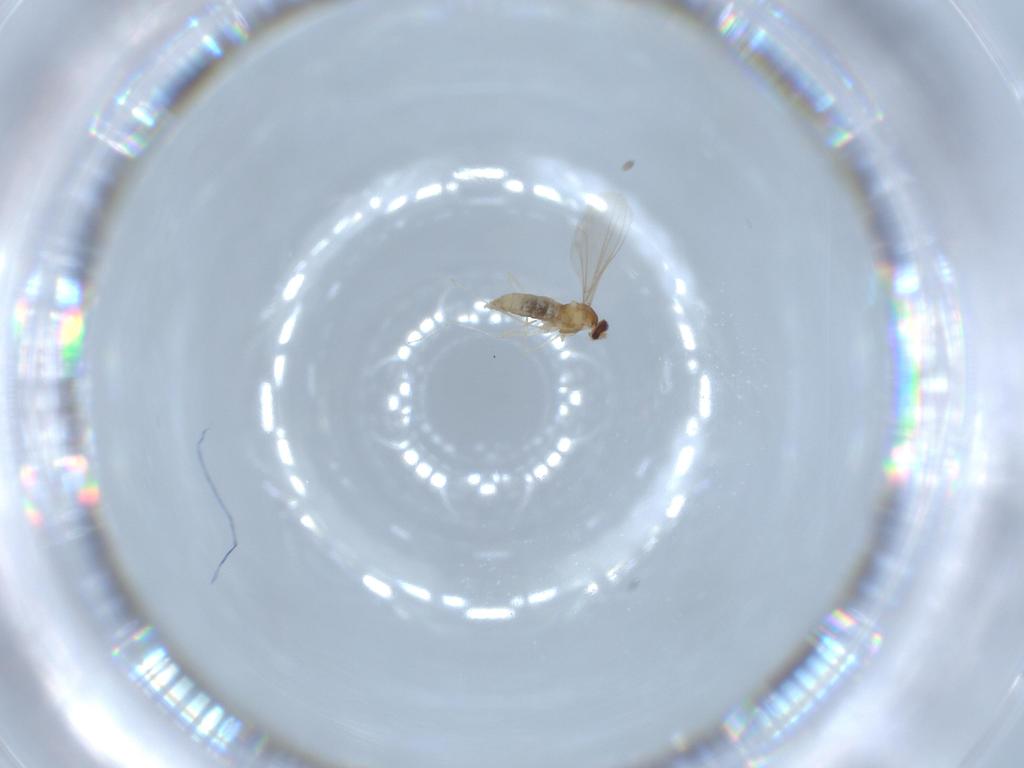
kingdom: Animalia
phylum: Arthropoda
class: Insecta
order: Diptera
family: Cecidomyiidae
